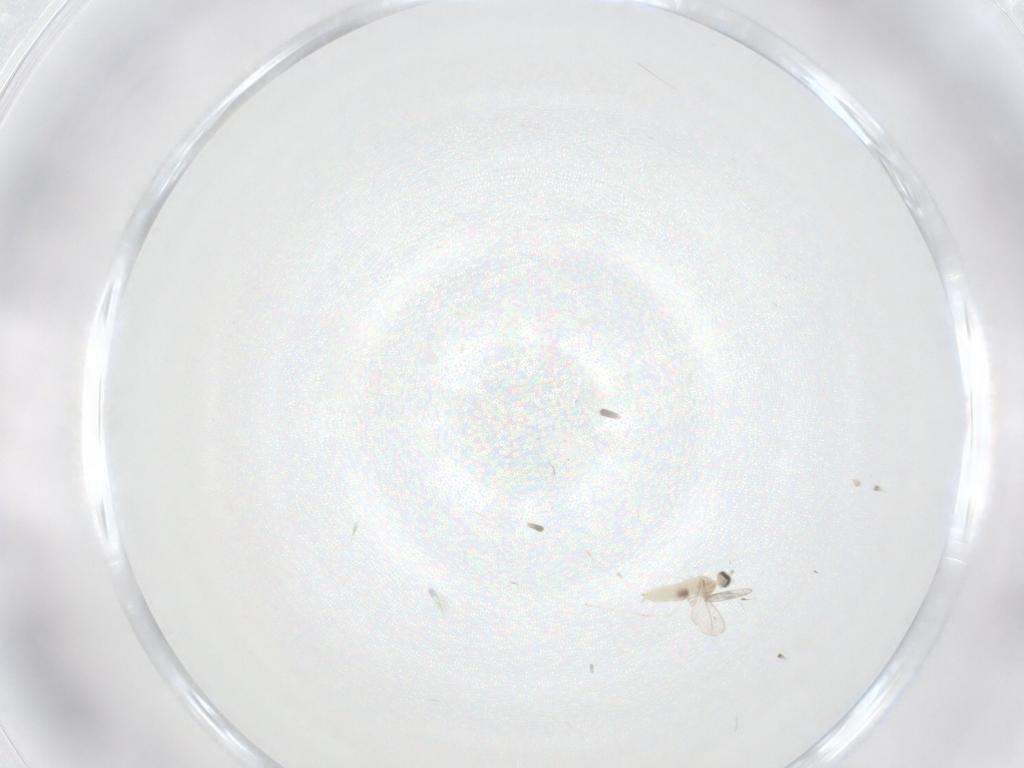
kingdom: Animalia
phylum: Arthropoda
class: Insecta
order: Diptera
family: Cecidomyiidae
